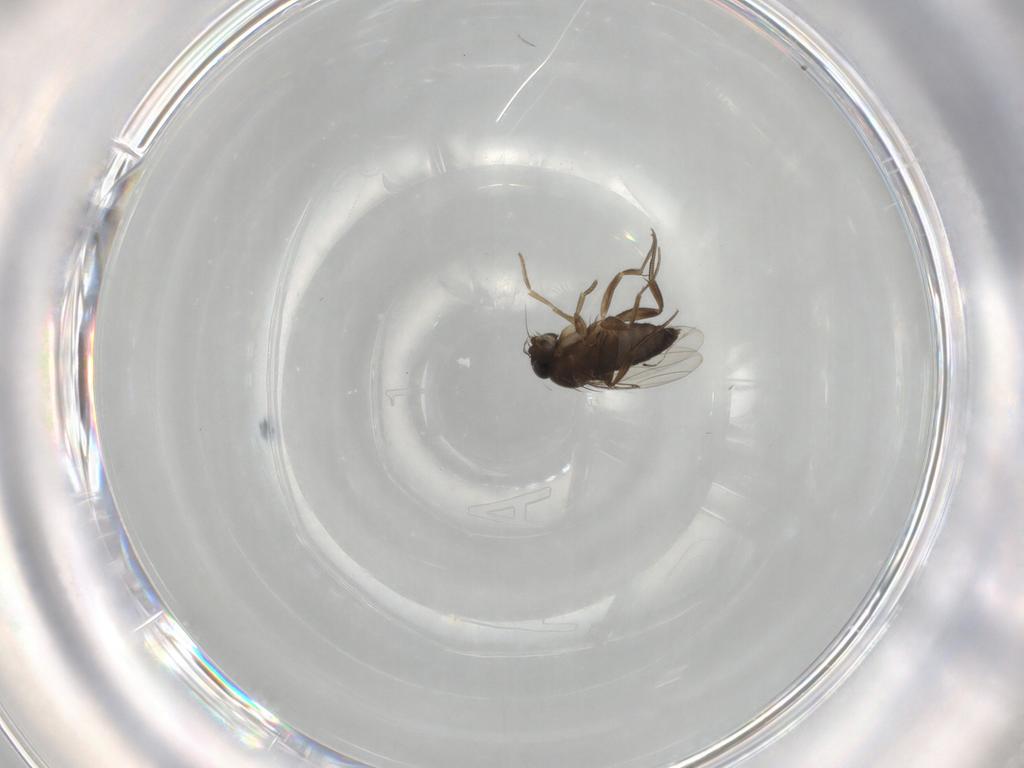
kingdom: Animalia
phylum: Arthropoda
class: Insecta
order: Diptera
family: Phoridae
